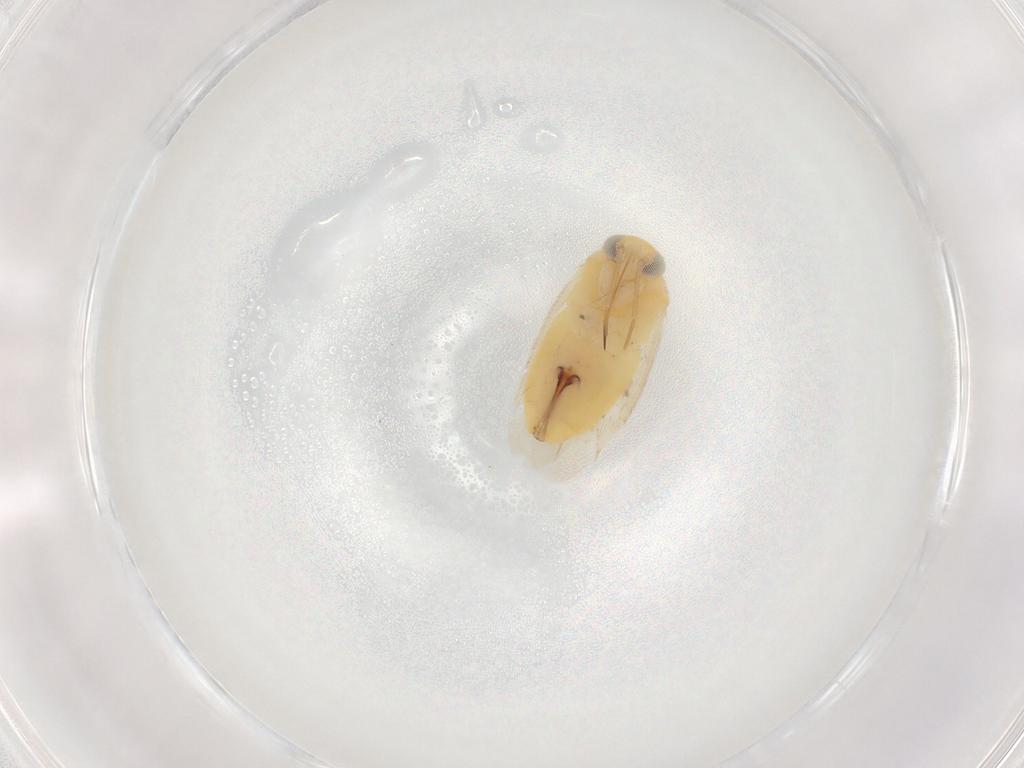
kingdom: Animalia
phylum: Arthropoda
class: Insecta
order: Hemiptera
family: Miridae
